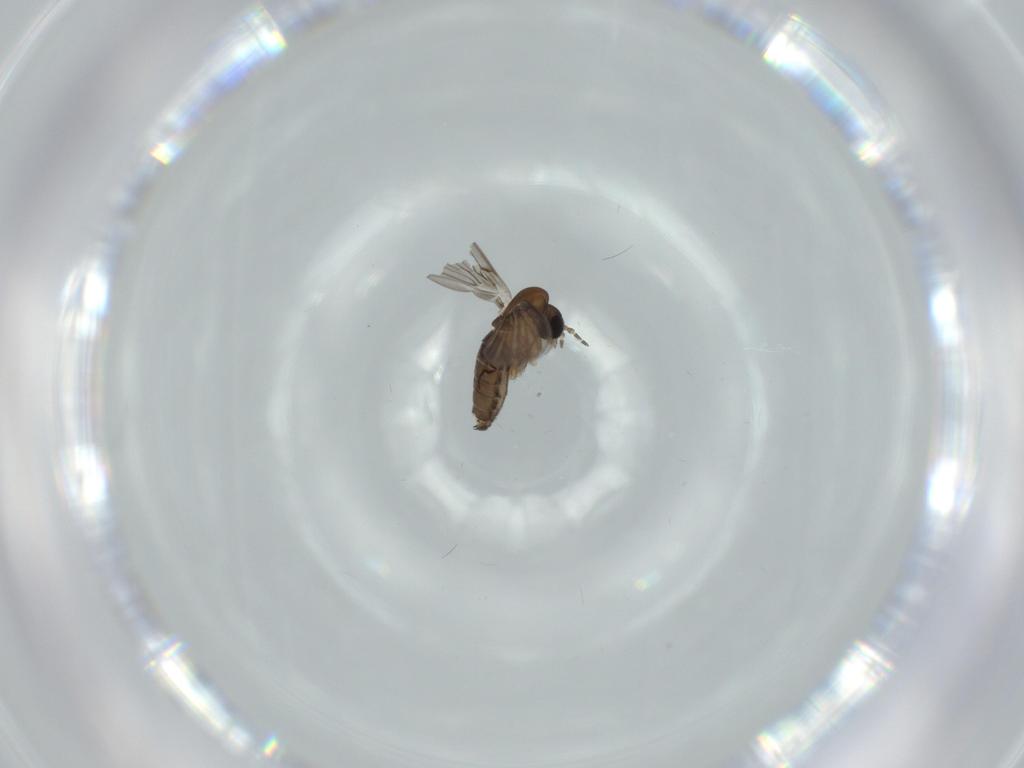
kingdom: Animalia
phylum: Arthropoda
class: Insecta
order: Diptera
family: Psychodidae
